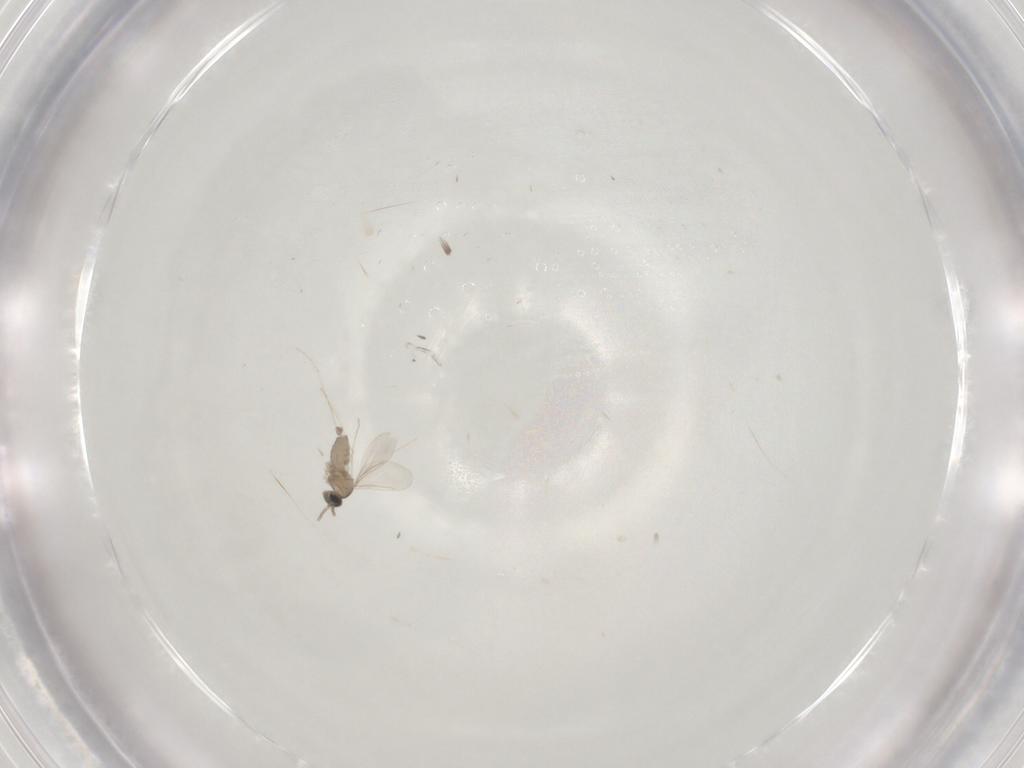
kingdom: Animalia
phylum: Arthropoda
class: Insecta
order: Diptera
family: Cecidomyiidae
